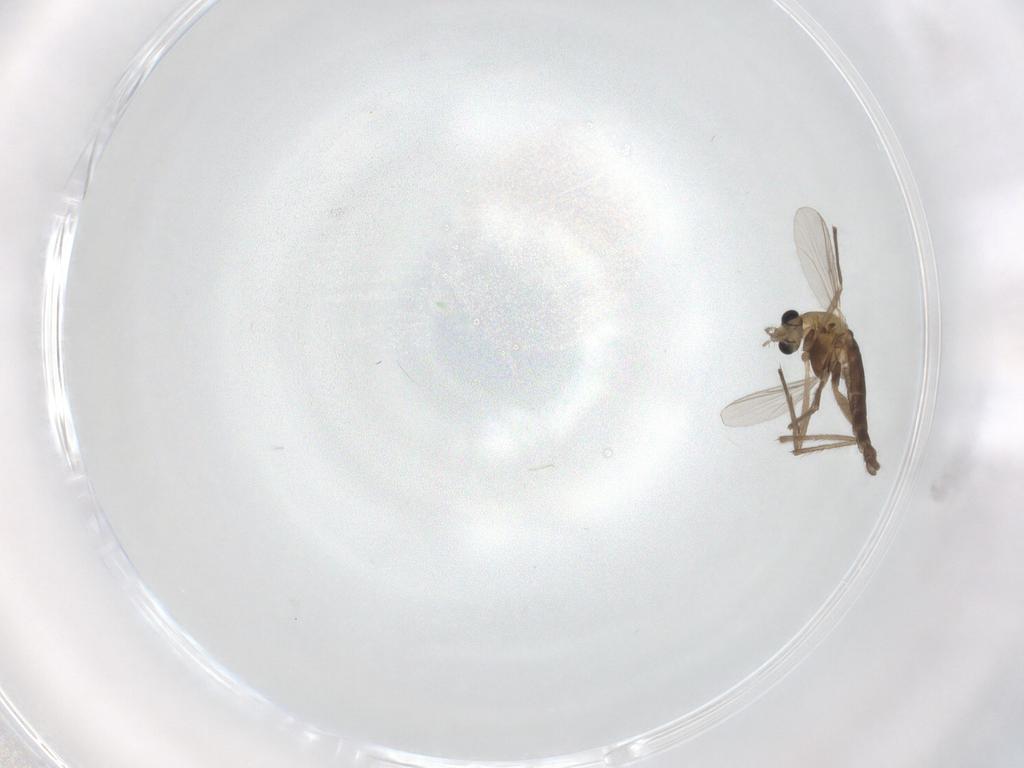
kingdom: Animalia
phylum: Arthropoda
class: Insecta
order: Diptera
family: Chironomidae
